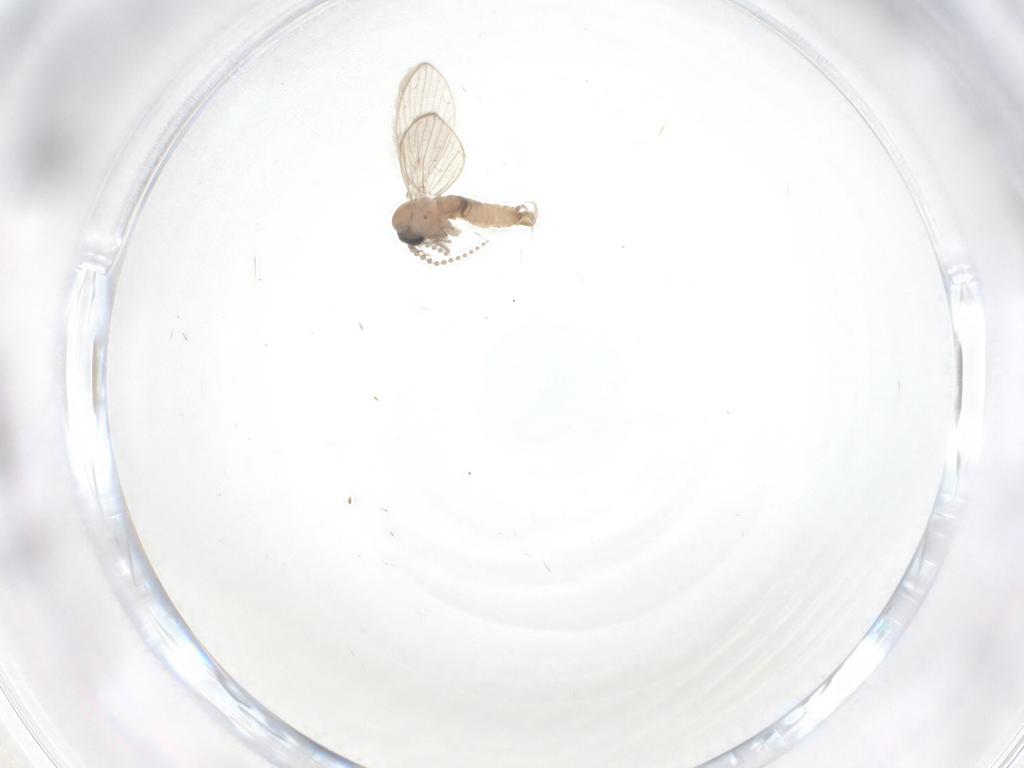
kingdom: Animalia
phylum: Arthropoda
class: Insecta
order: Diptera
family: Psychodidae
